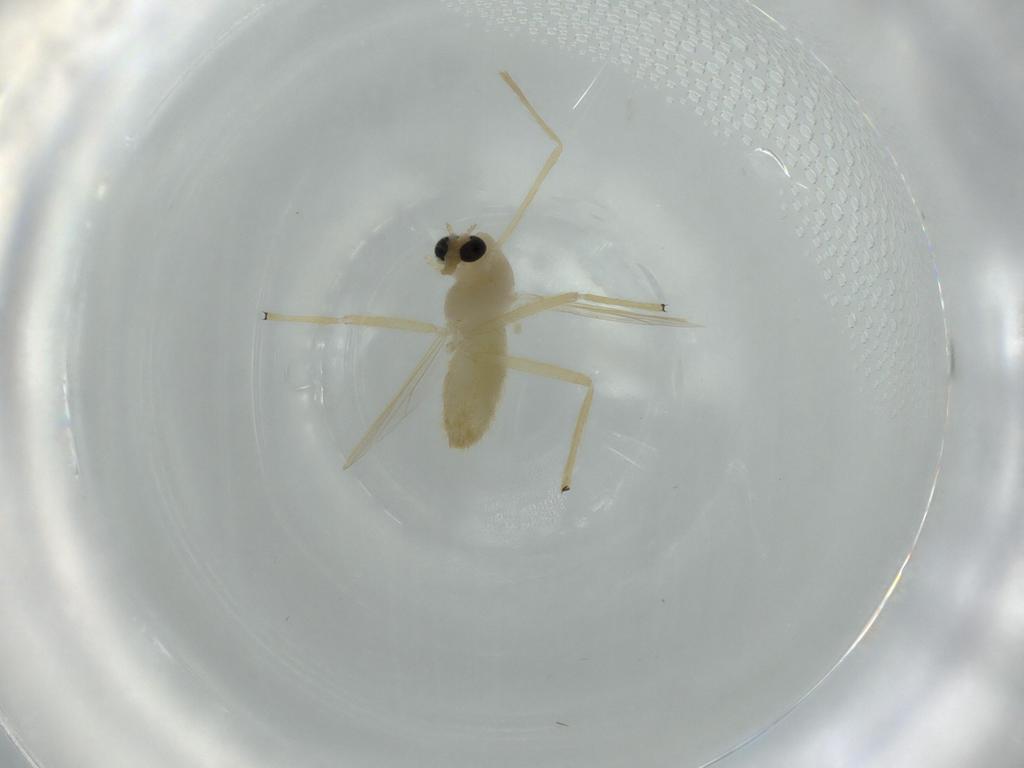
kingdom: Animalia
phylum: Arthropoda
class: Insecta
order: Diptera
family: Chironomidae
